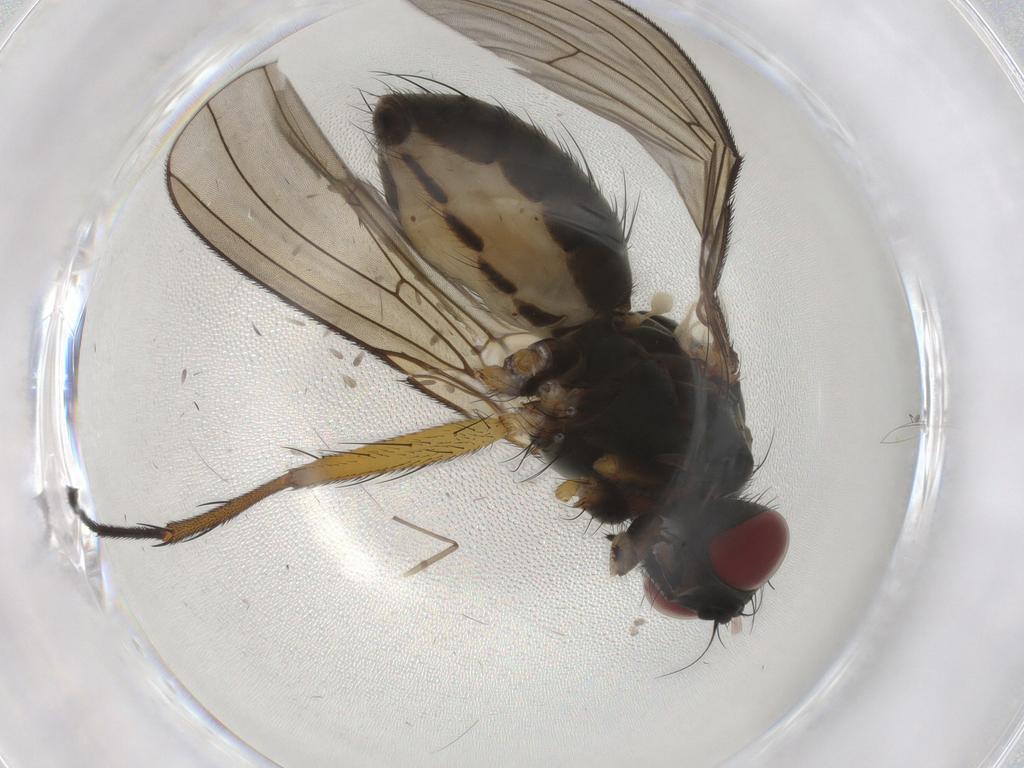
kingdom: Animalia
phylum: Arthropoda
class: Insecta
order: Diptera
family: Muscidae
